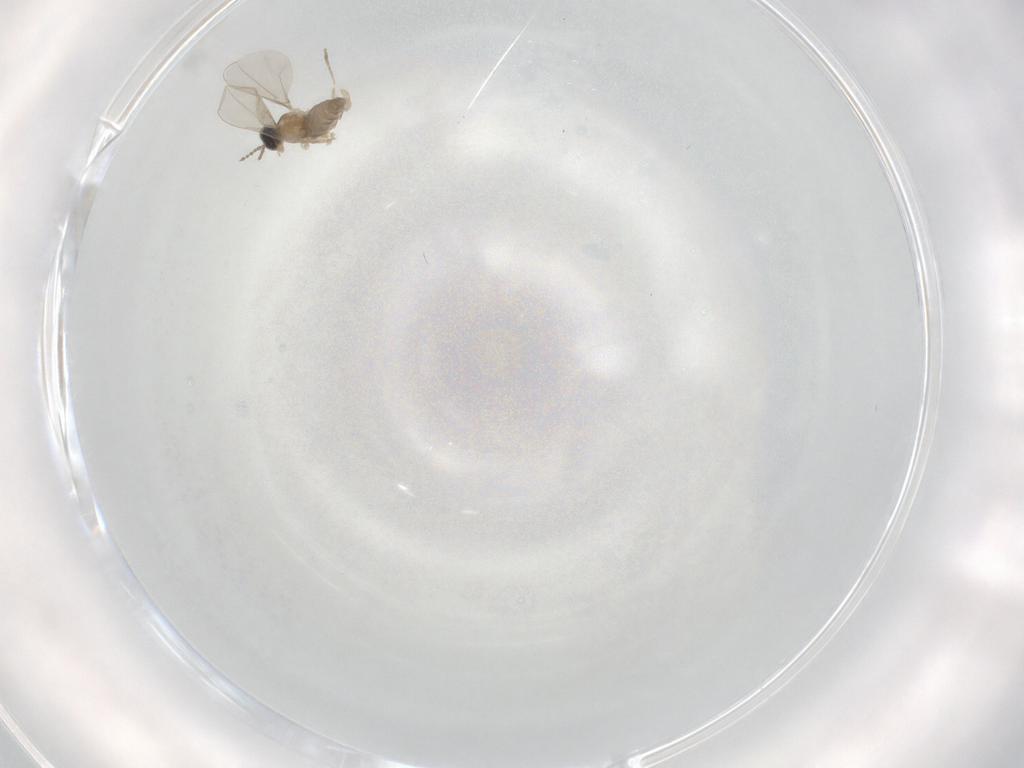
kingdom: Animalia
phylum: Arthropoda
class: Insecta
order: Diptera
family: Cecidomyiidae
